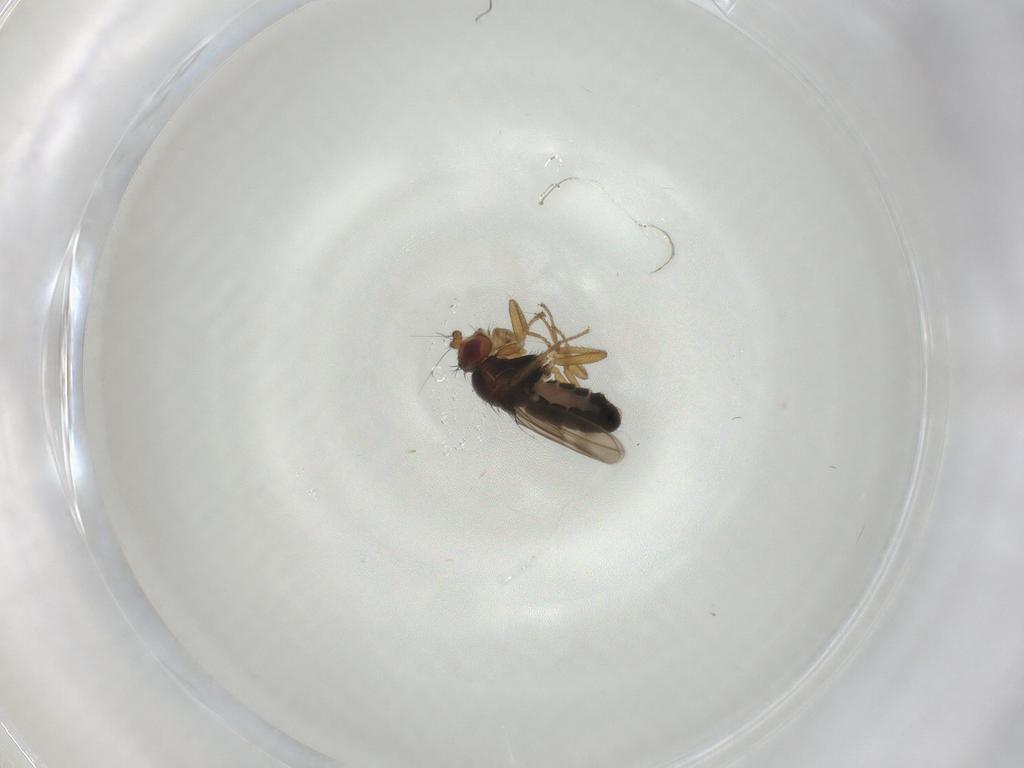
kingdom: Animalia
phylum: Arthropoda
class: Insecta
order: Diptera
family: Sphaeroceridae
